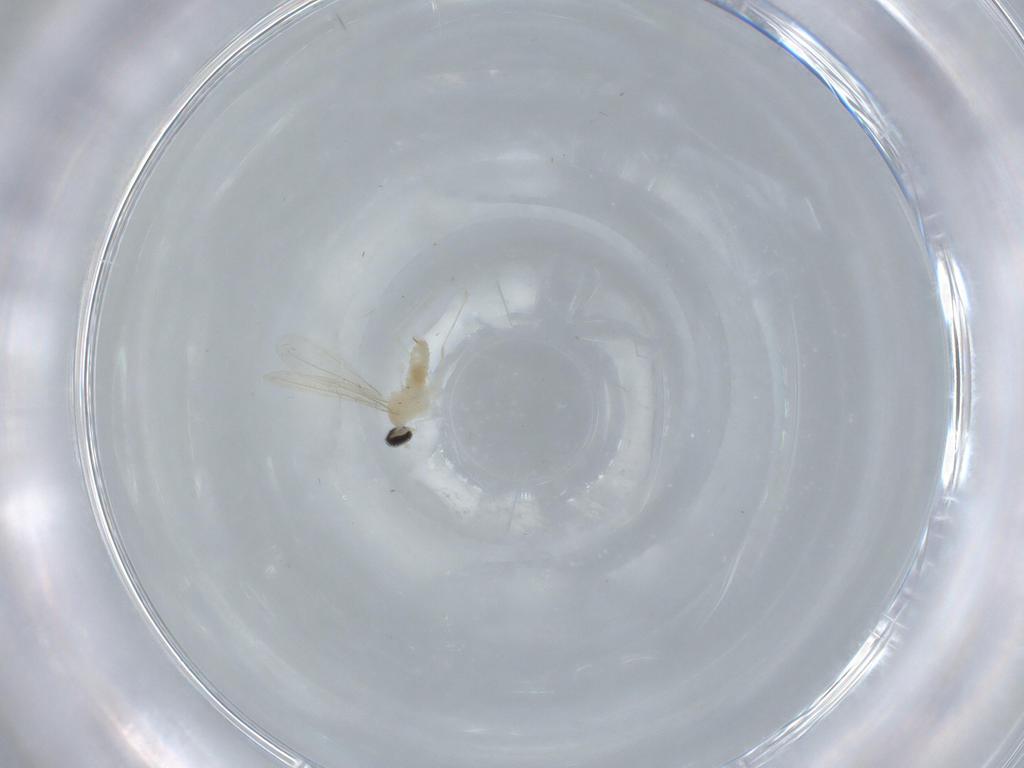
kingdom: Animalia
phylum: Arthropoda
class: Insecta
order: Diptera
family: Cecidomyiidae
